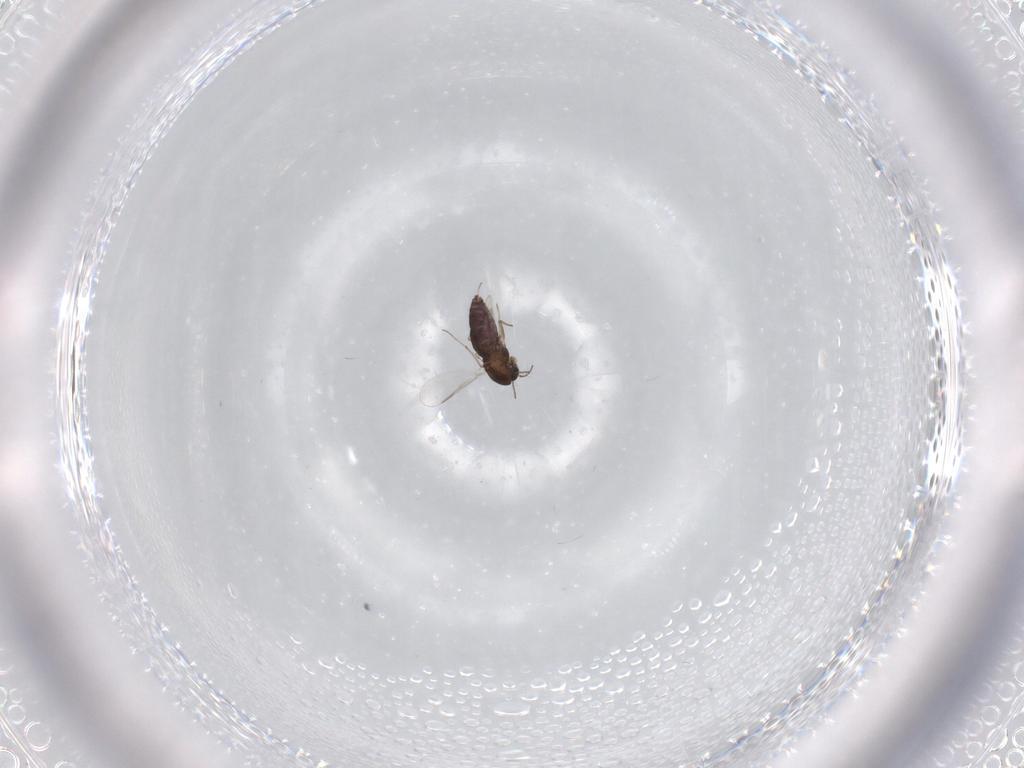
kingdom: Animalia
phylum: Arthropoda
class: Insecta
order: Diptera
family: Chironomidae
